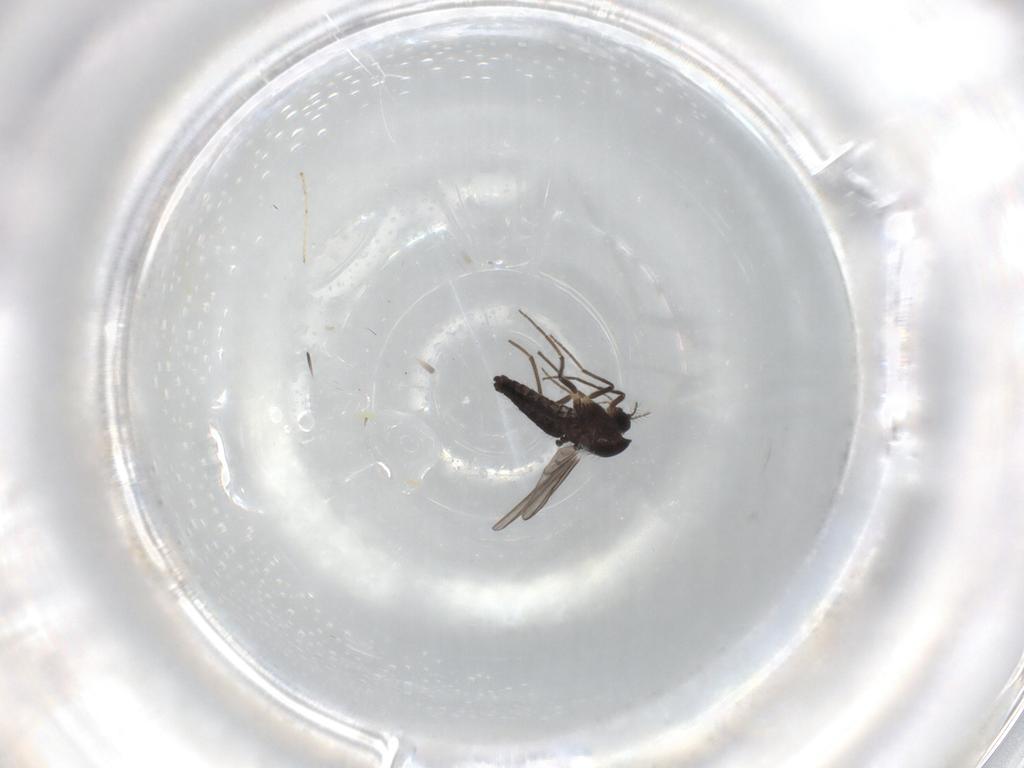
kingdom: Animalia
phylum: Arthropoda
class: Insecta
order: Diptera
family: Chironomidae
